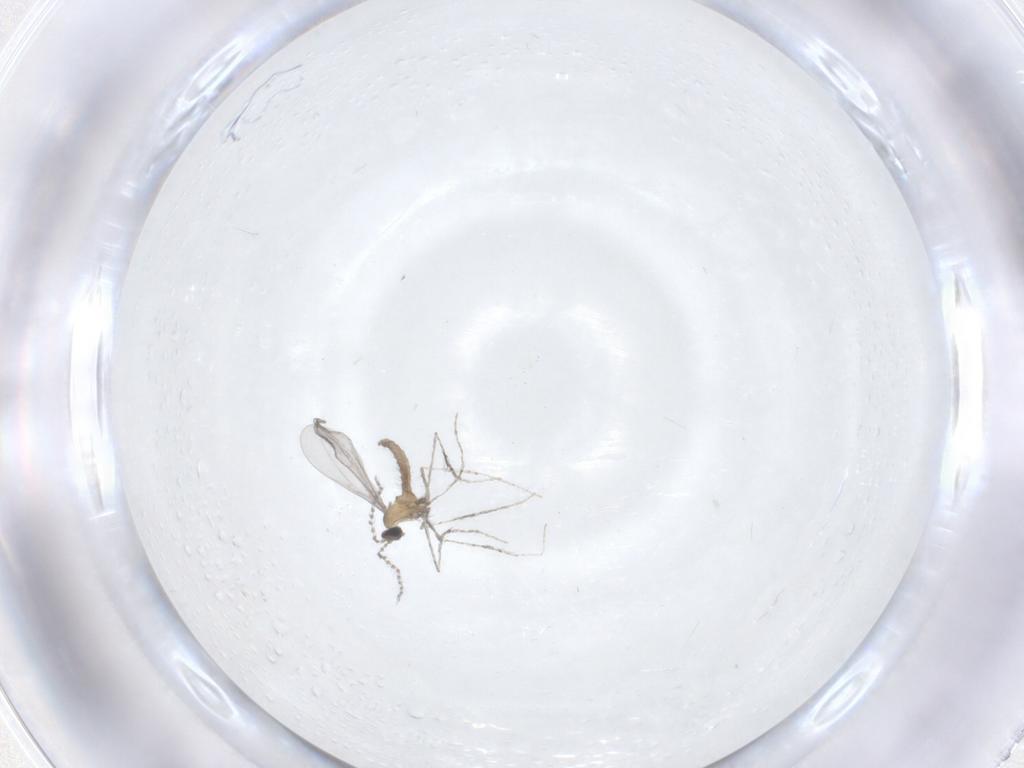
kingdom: Animalia
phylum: Arthropoda
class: Insecta
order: Diptera
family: Cecidomyiidae
